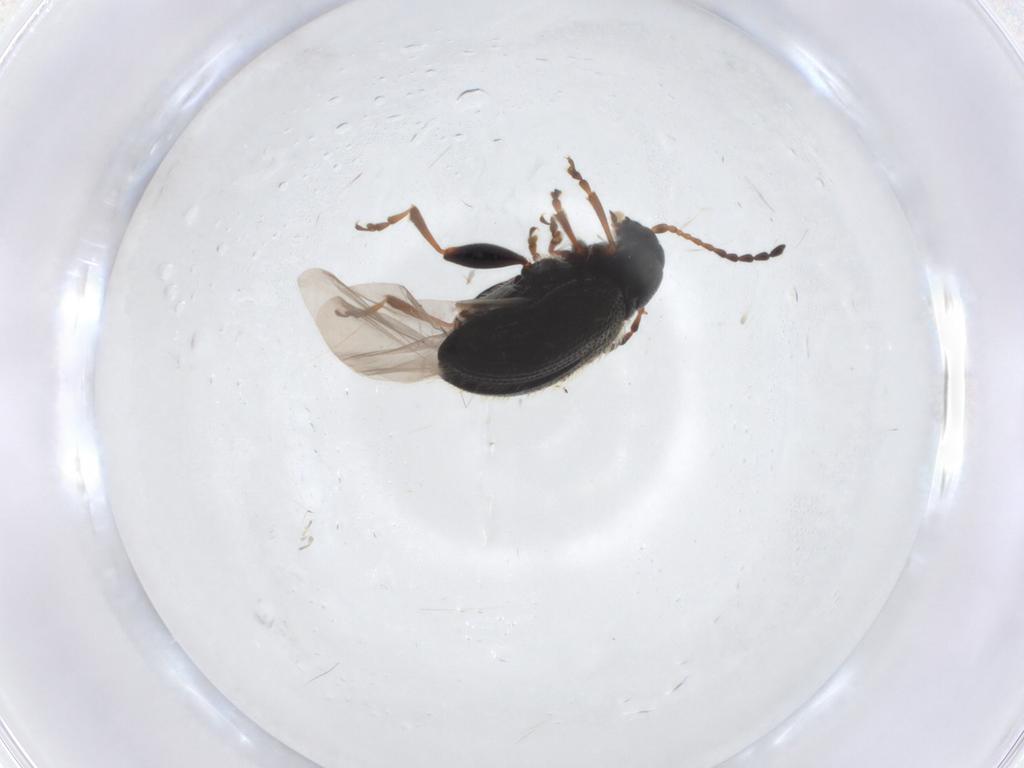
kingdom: Animalia
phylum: Arthropoda
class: Insecta
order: Coleoptera
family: Chrysomelidae
